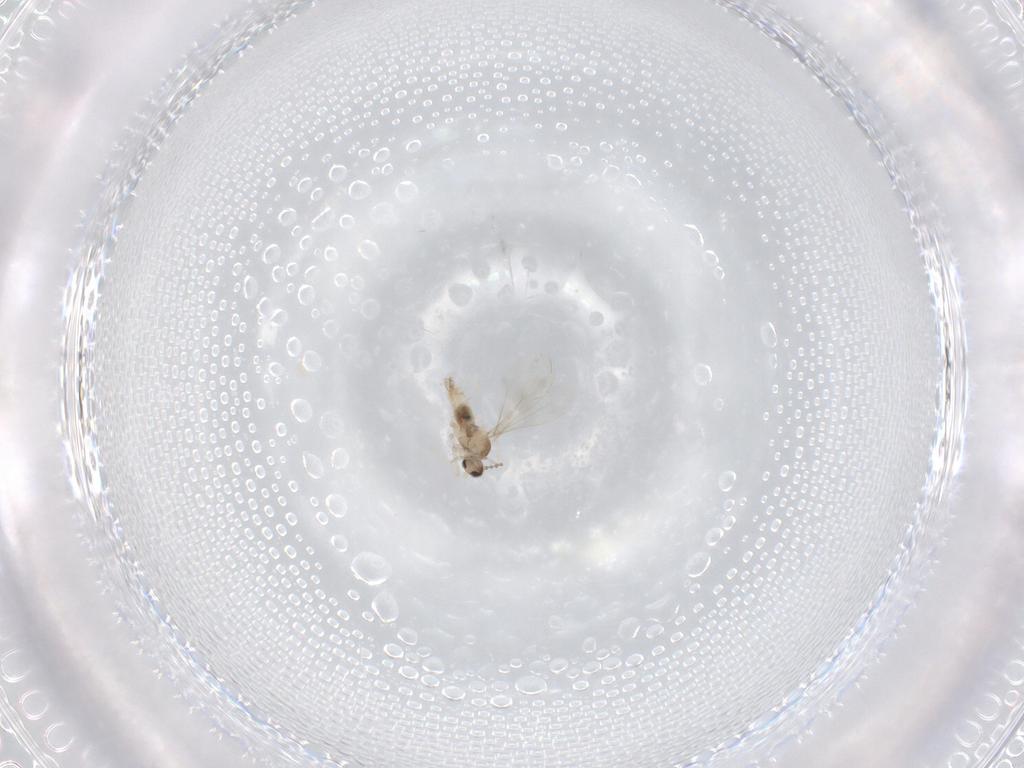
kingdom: Animalia
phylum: Arthropoda
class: Insecta
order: Diptera
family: Cecidomyiidae
